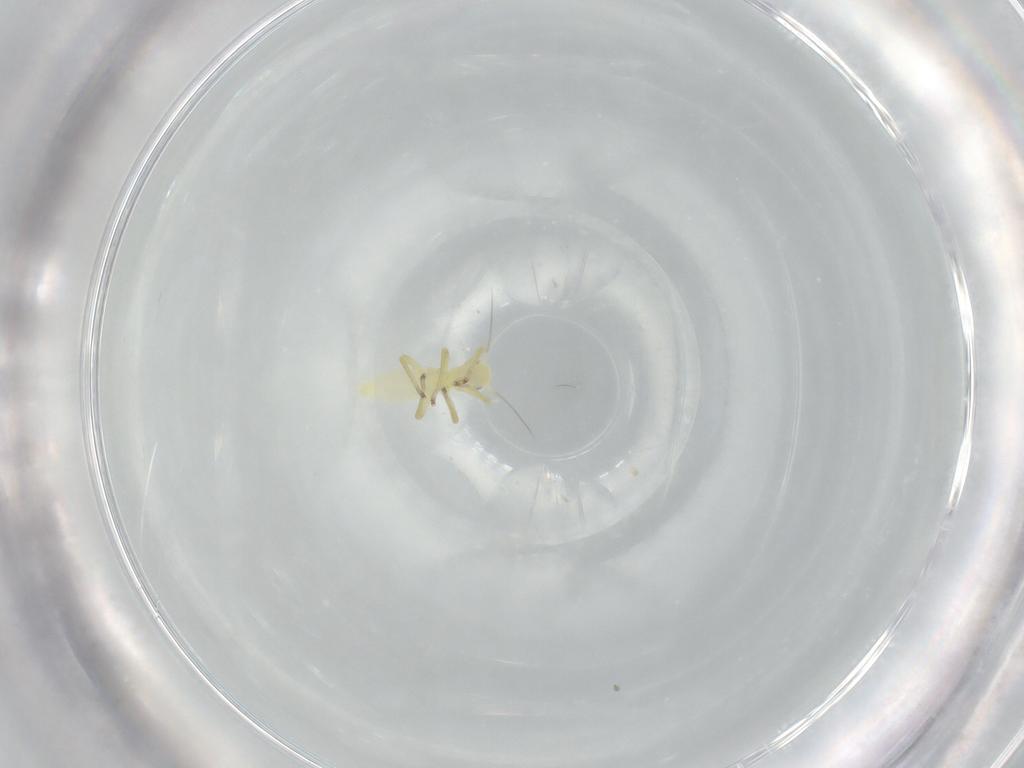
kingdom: Animalia
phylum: Arthropoda
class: Insecta
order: Hemiptera
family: Cicadellidae
